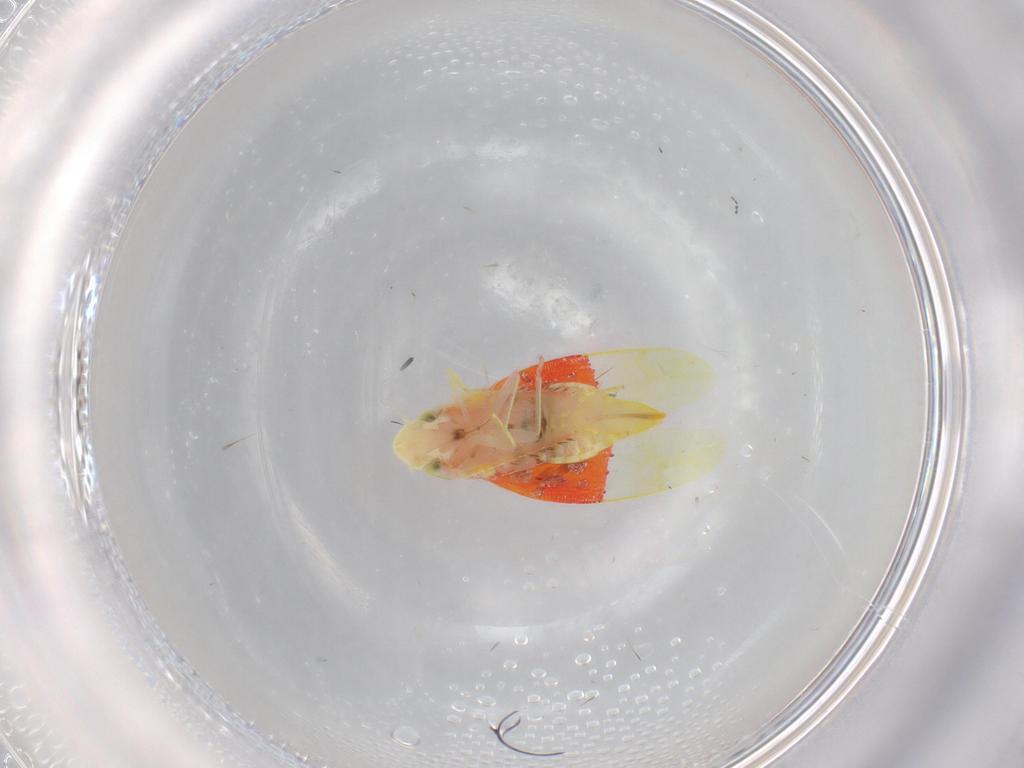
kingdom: Animalia
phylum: Arthropoda
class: Insecta
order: Hemiptera
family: Cicadellidae
